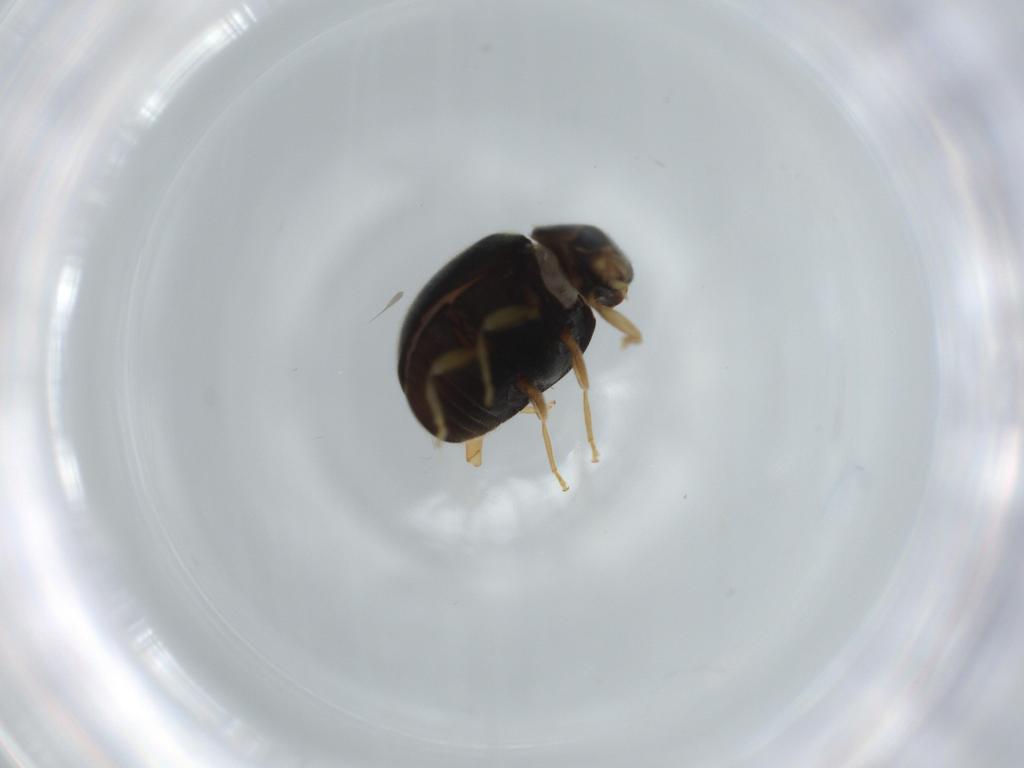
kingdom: Animalia
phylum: Arthropoda
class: Insecta
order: Coleoptera
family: Coccinellidae
